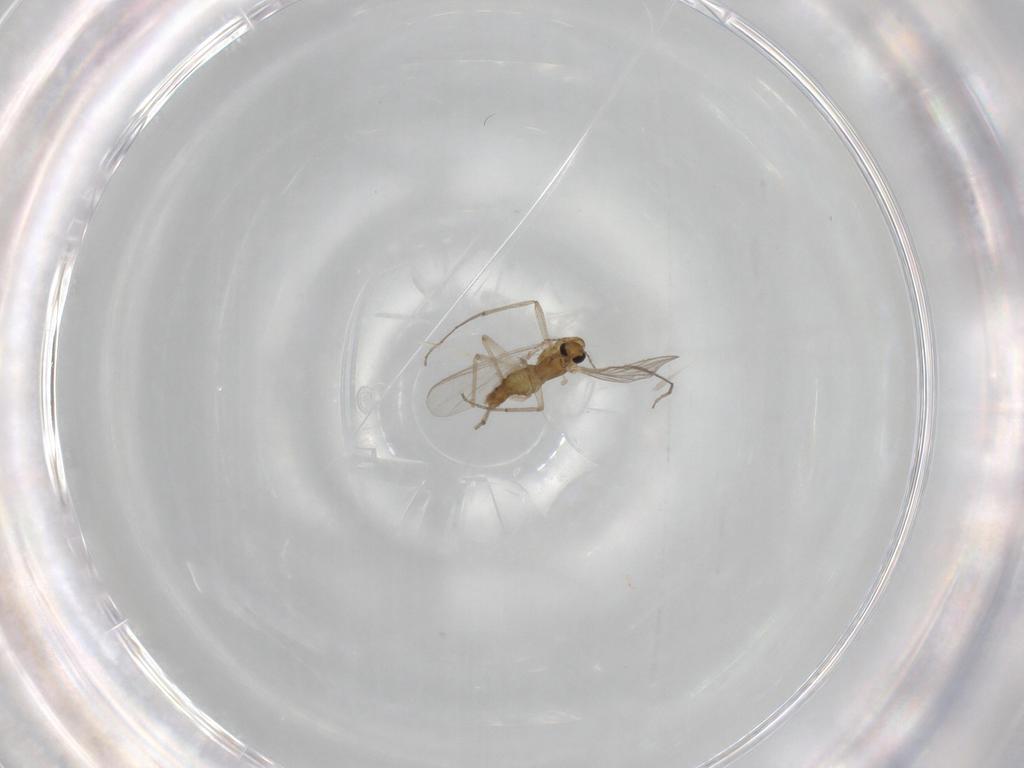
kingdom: Animalia
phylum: Arthropoda
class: Insecta
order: Diptera
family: Chironomidae
